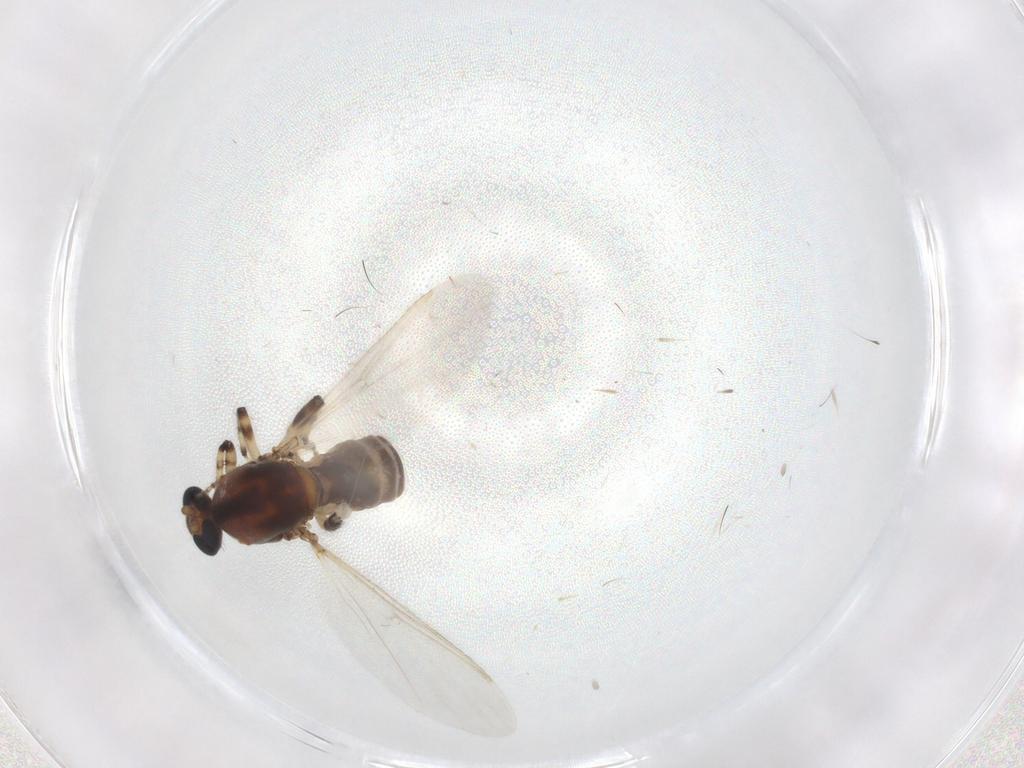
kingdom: Animalia
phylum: Arthropoda
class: Insecta
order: Diptera
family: Ceratopogonidae
